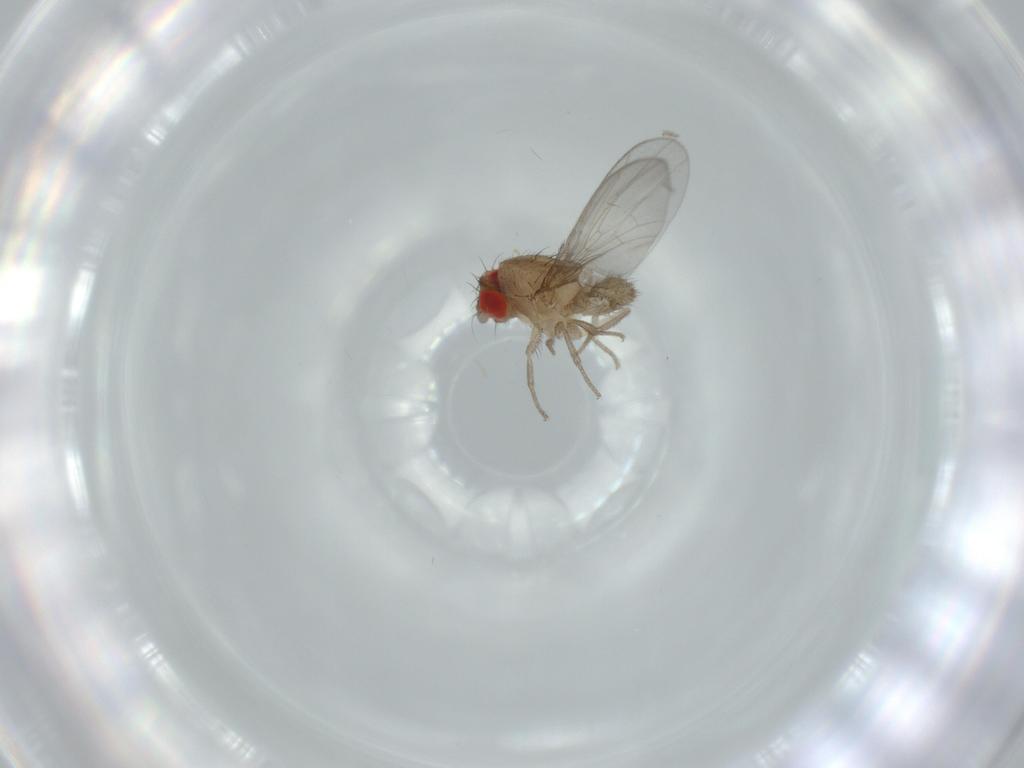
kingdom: Animalia
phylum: Arthropoda
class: Insecta
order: Diptera
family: Drosophilidae
